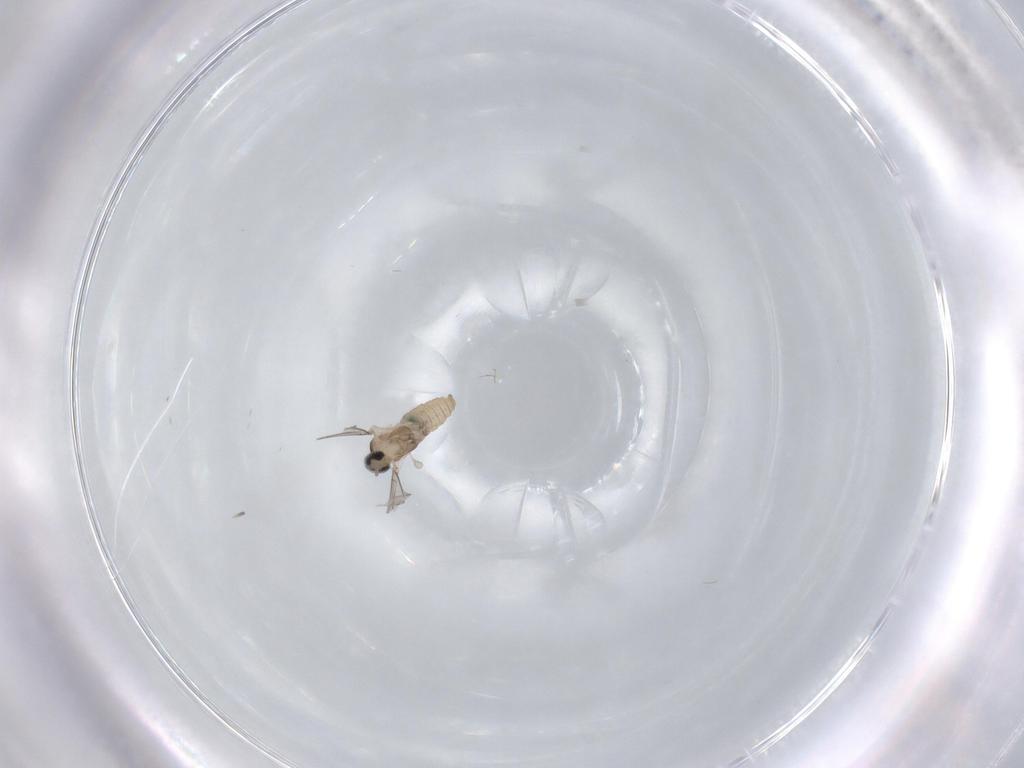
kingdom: Animalia
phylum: Arthropoda
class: Insecta
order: Diptera
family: Cecidomyiidae
